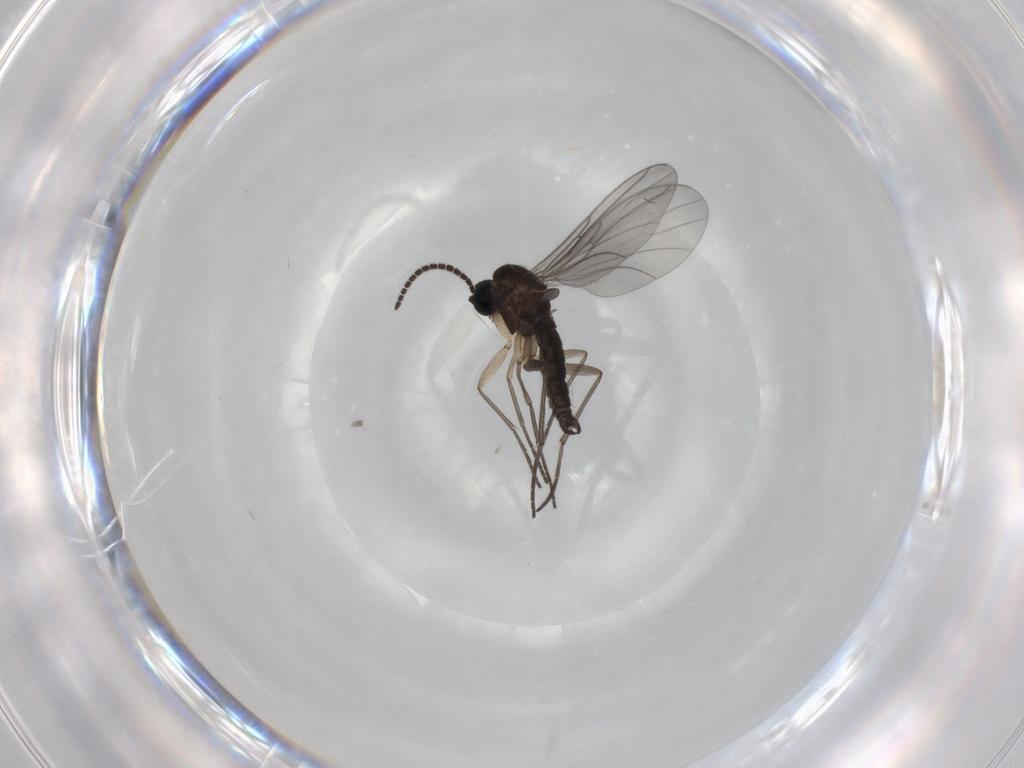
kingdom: Animalia
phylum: Arthropoda
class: Insecta
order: Diptera
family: Sciaridae
